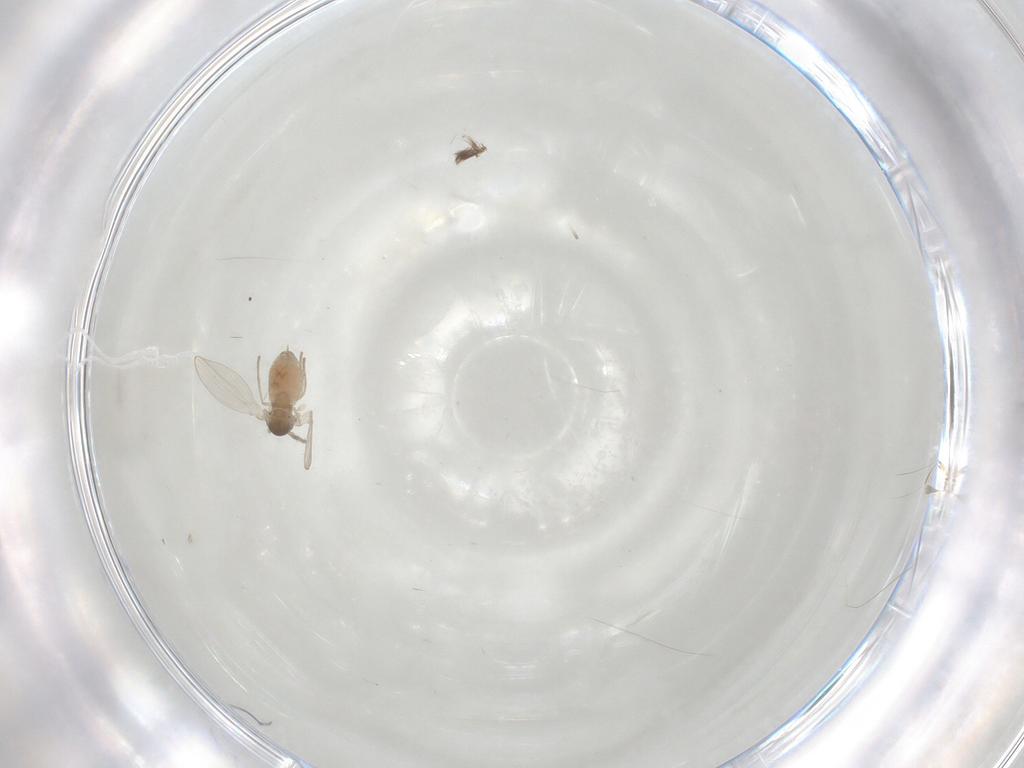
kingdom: Animalia
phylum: Arthropoda
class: Insecta
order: Diptera
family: Psychodidae
